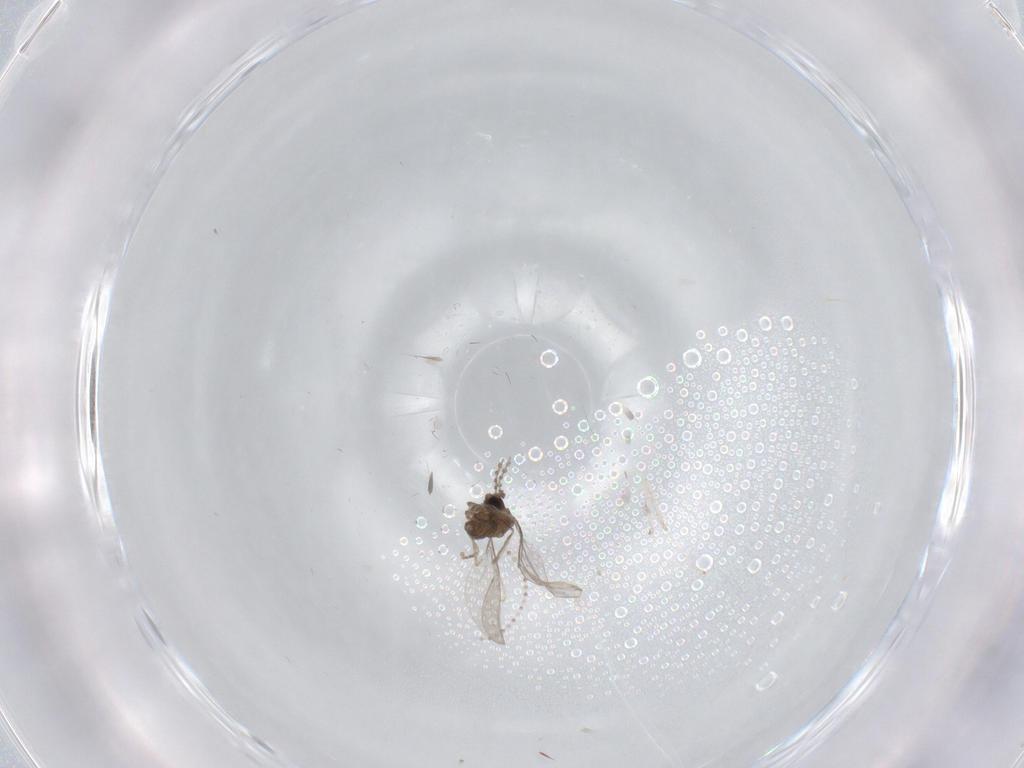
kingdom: Animalia
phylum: Arthropoda
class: Insecta
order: Diptera
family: Cecidomyiidae
